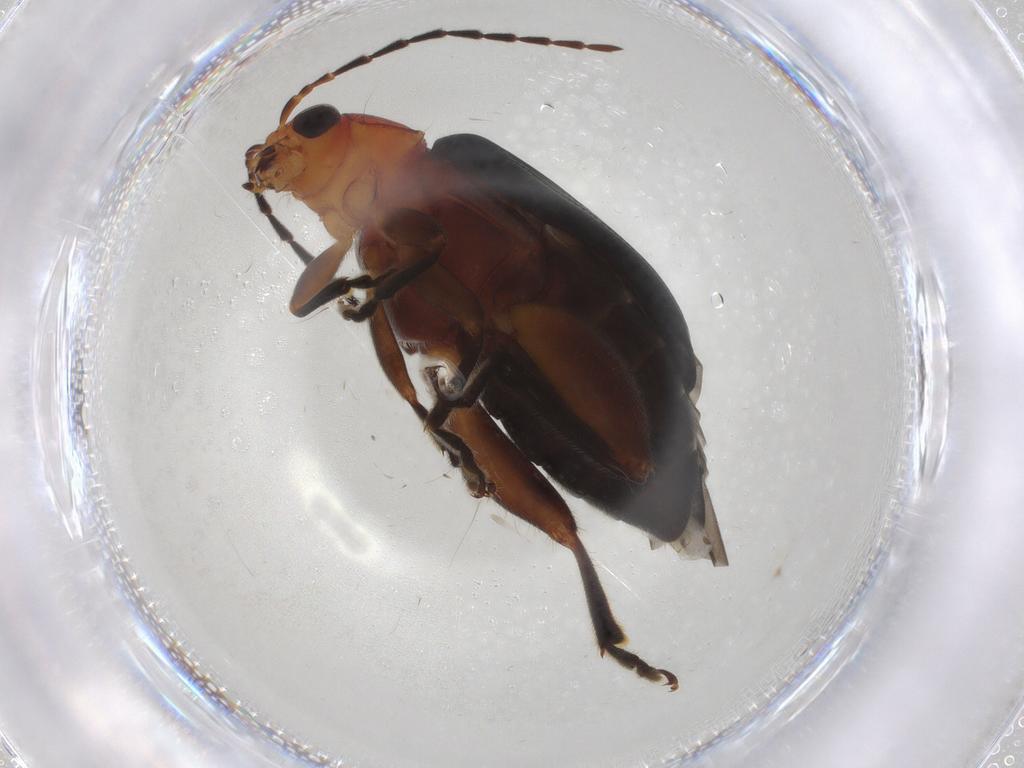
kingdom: Animalia
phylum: Arthropoda
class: Insecta
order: Coleoptera
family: Chrysomelidae
